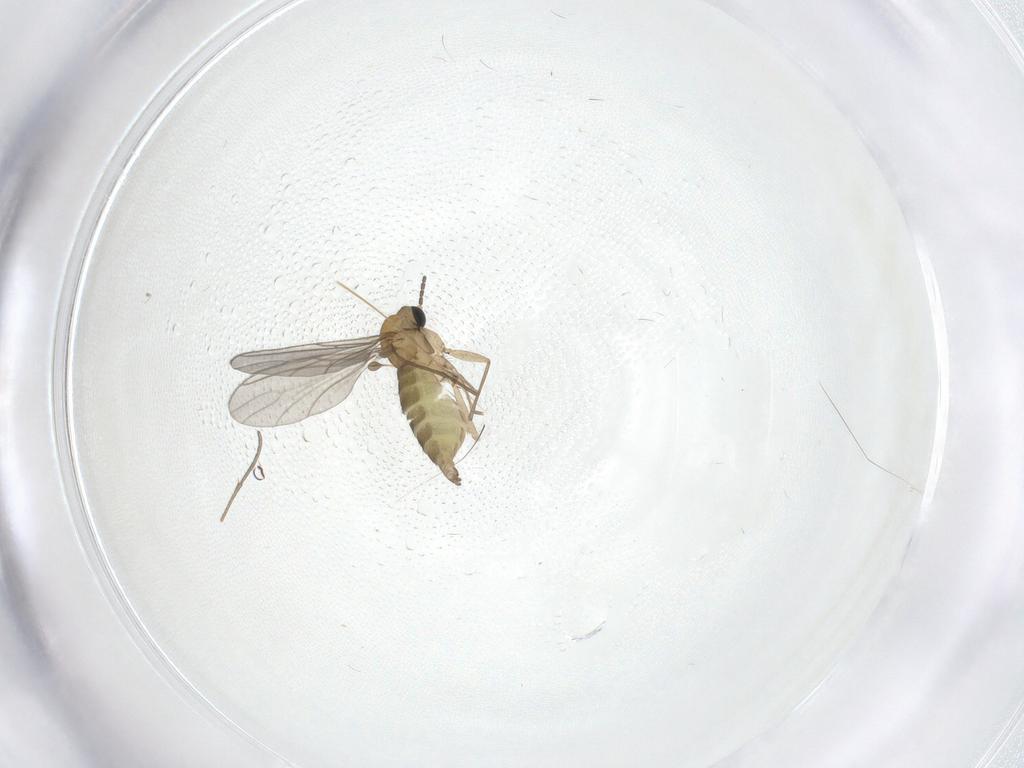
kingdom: Animalia
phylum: Arthropoda
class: Insecta
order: Diptera
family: Sciaridae
